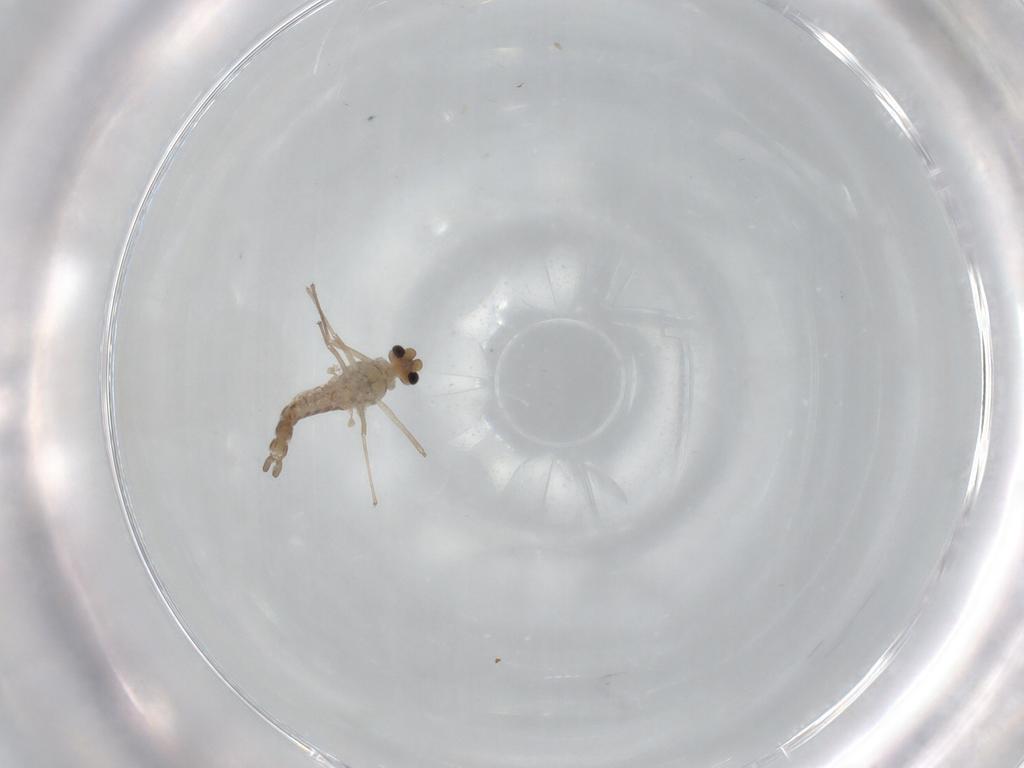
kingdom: Animalia
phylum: Arthropoda
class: Insecta
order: Diptera
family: Chironomidae
